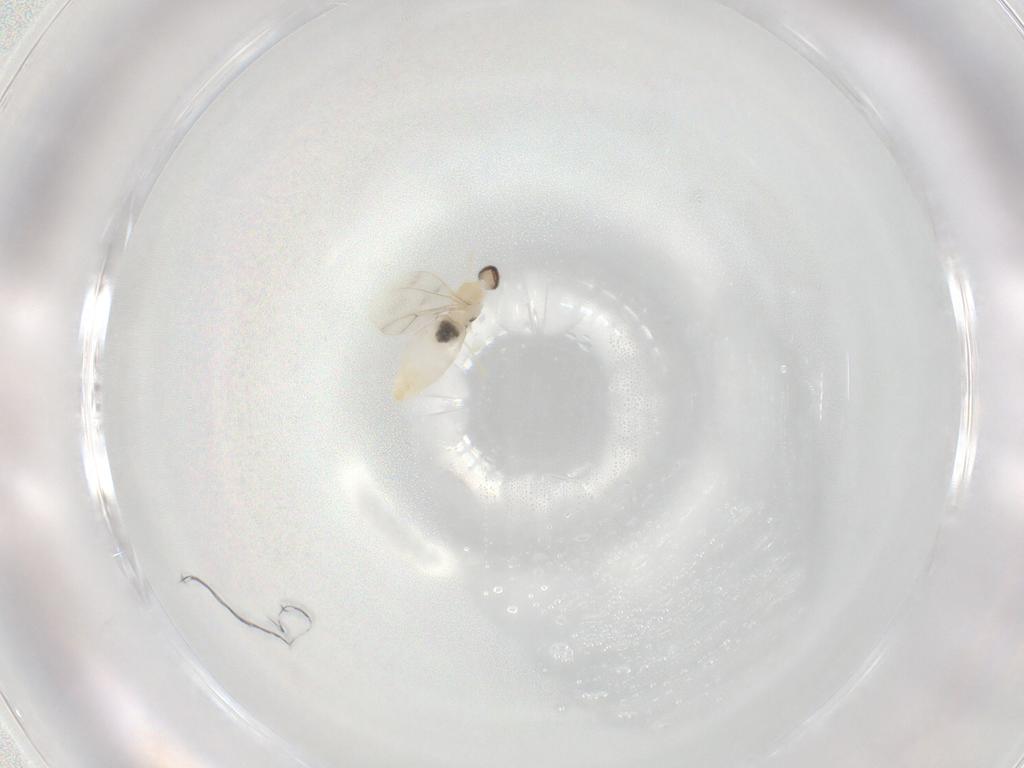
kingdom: Animalia
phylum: Arthropoda
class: Insecta
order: Diptera
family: Cecidomyiidae
